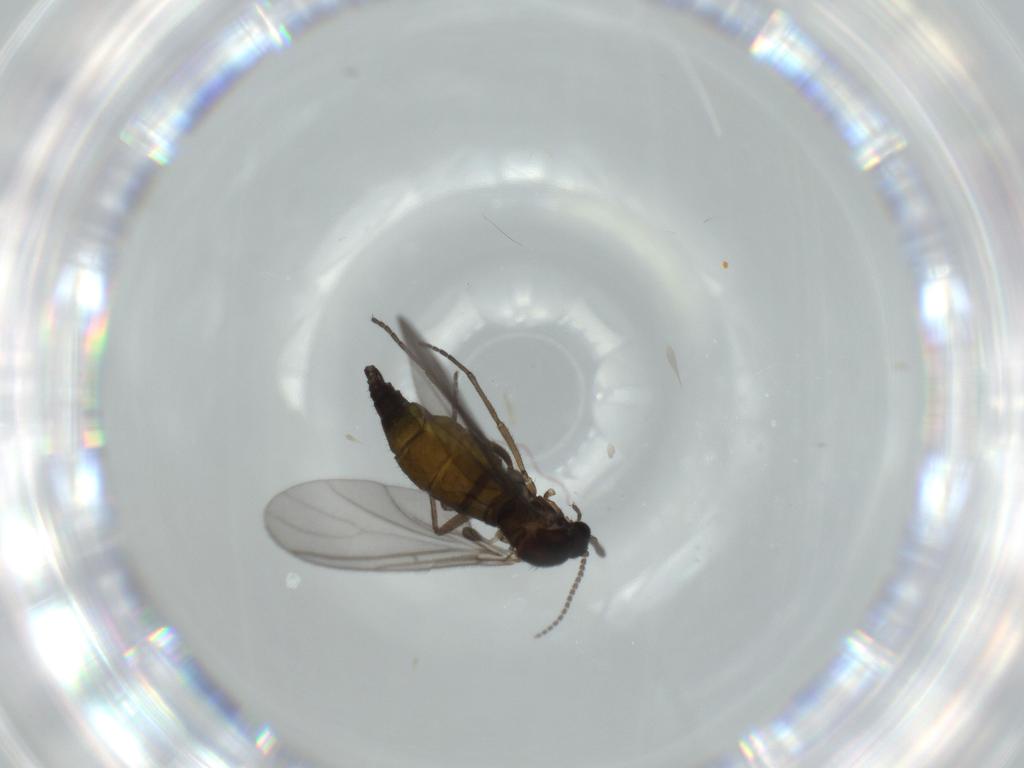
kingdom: Animalia
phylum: Arthropoda
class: Insecta
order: Diptera
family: Sciaridae
